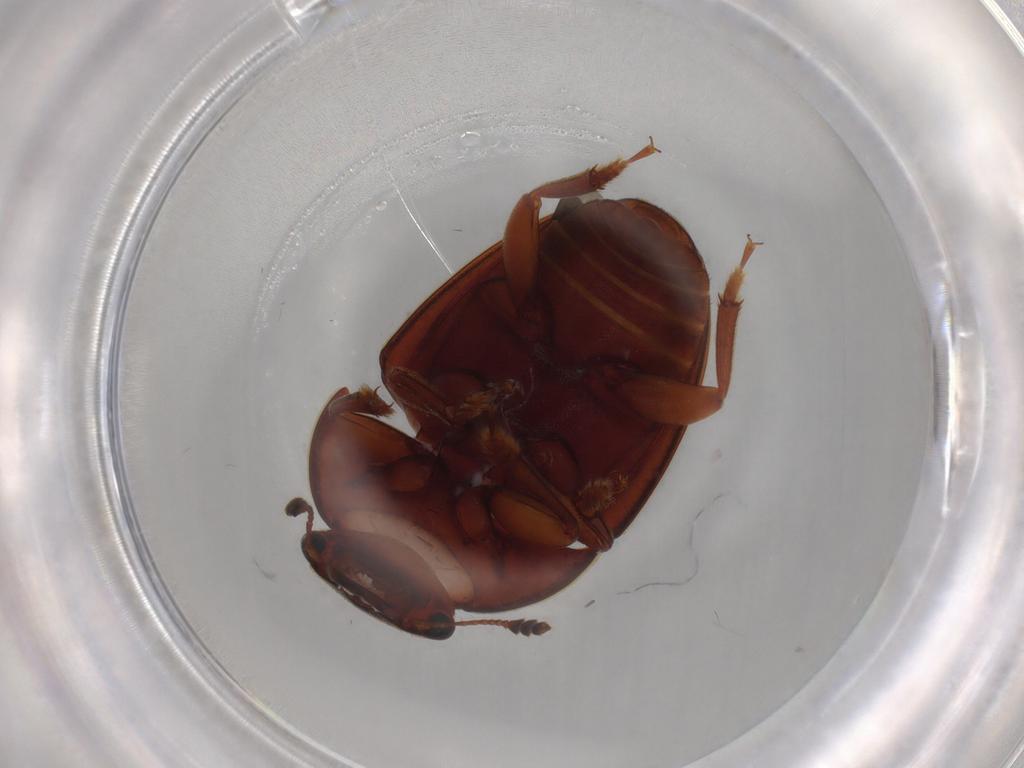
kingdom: Animalia
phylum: Arthropoda
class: Insecta
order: Coleoptera
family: Nitidulidae
